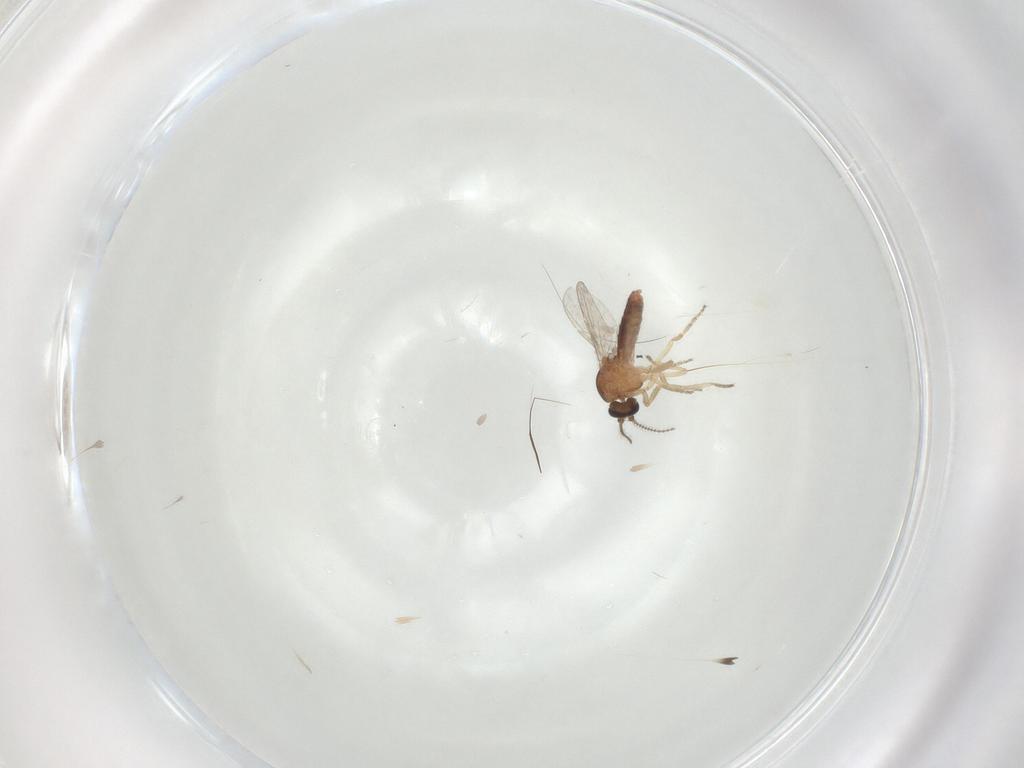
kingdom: Animalia
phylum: Arthropoda
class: Insecta
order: Diptera
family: Ceratopogonidae
